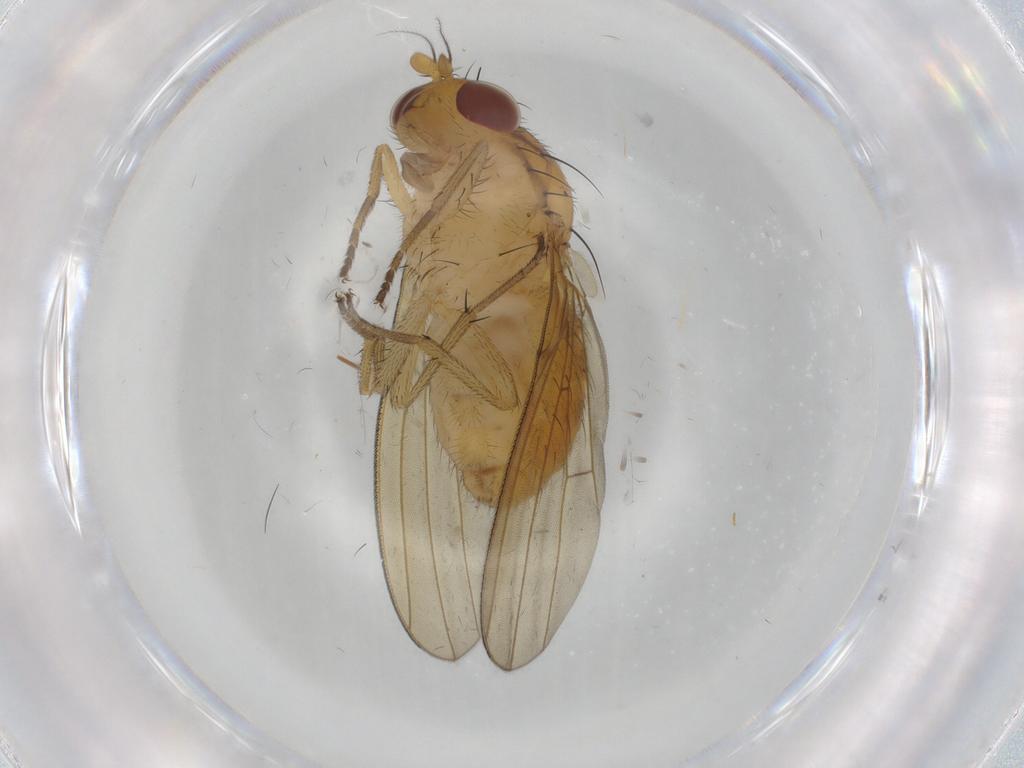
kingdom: Animalia
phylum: Arthropoda
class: Insecta
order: Diptera
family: Lauxaniidae
